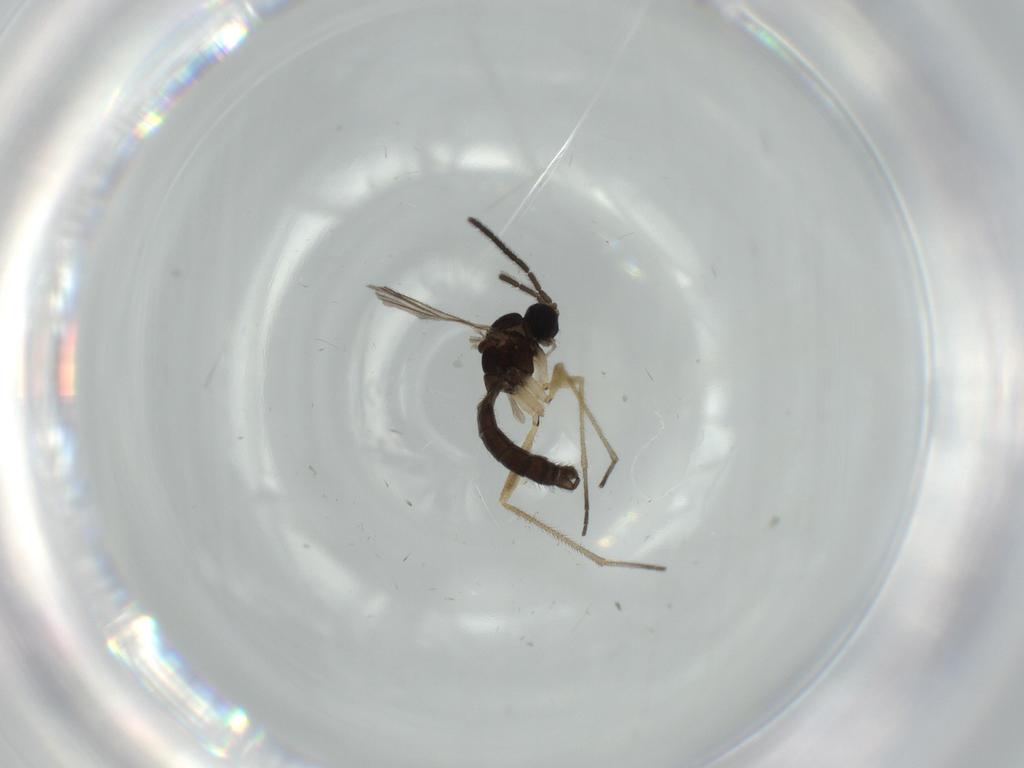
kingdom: Animalia
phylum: Arthropoda
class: Insecta
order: Diptera
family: Sciaridae
